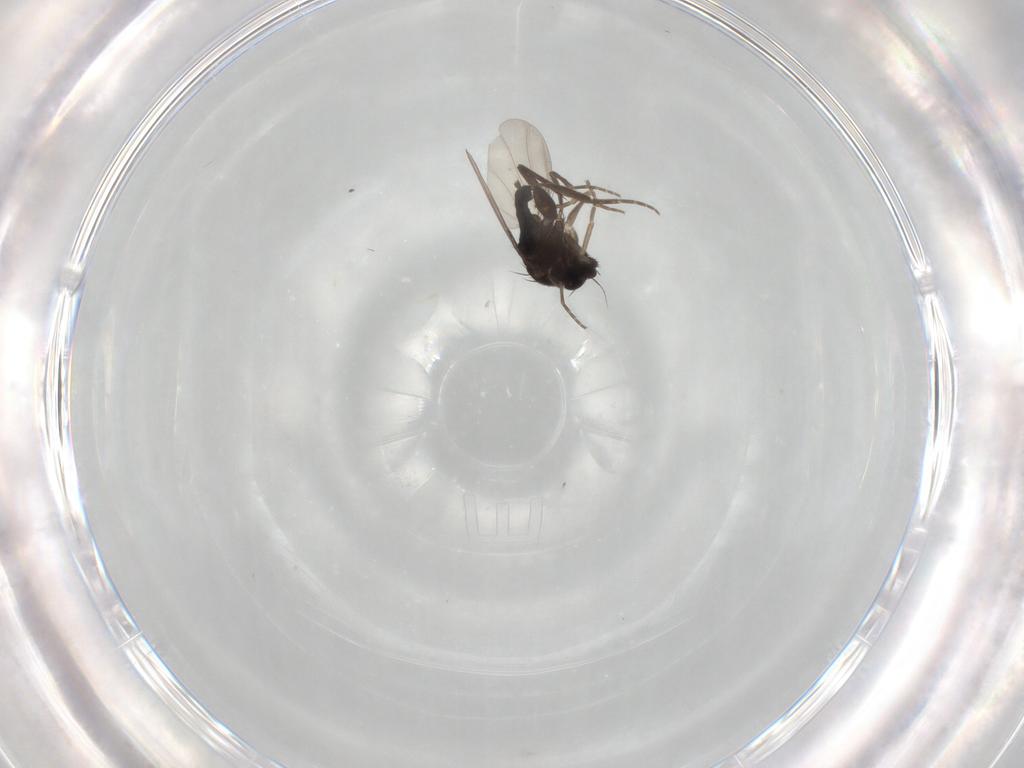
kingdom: Animalia
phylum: Arthropoda
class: Insecta
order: Diptera
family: Phoridae
